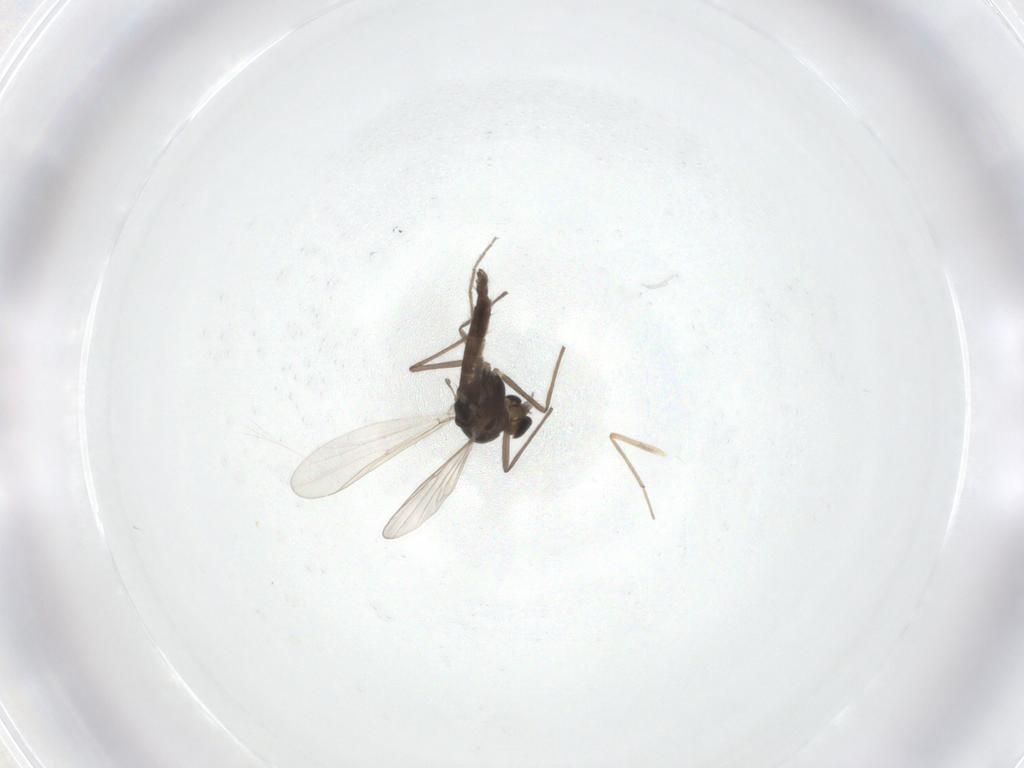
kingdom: Animalia
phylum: Arthropoda
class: Insecta
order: Diptera
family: Chironomidae
